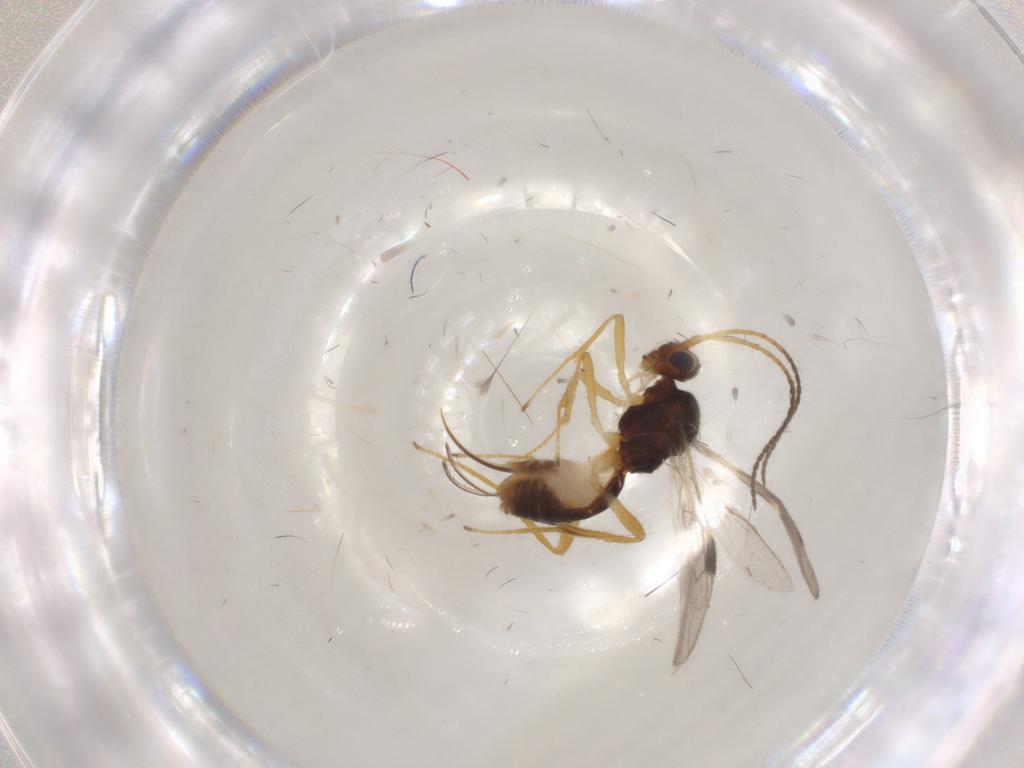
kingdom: Animalia
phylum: Arthropoda
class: Insecta
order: Hymenoptera
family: Braconidae
